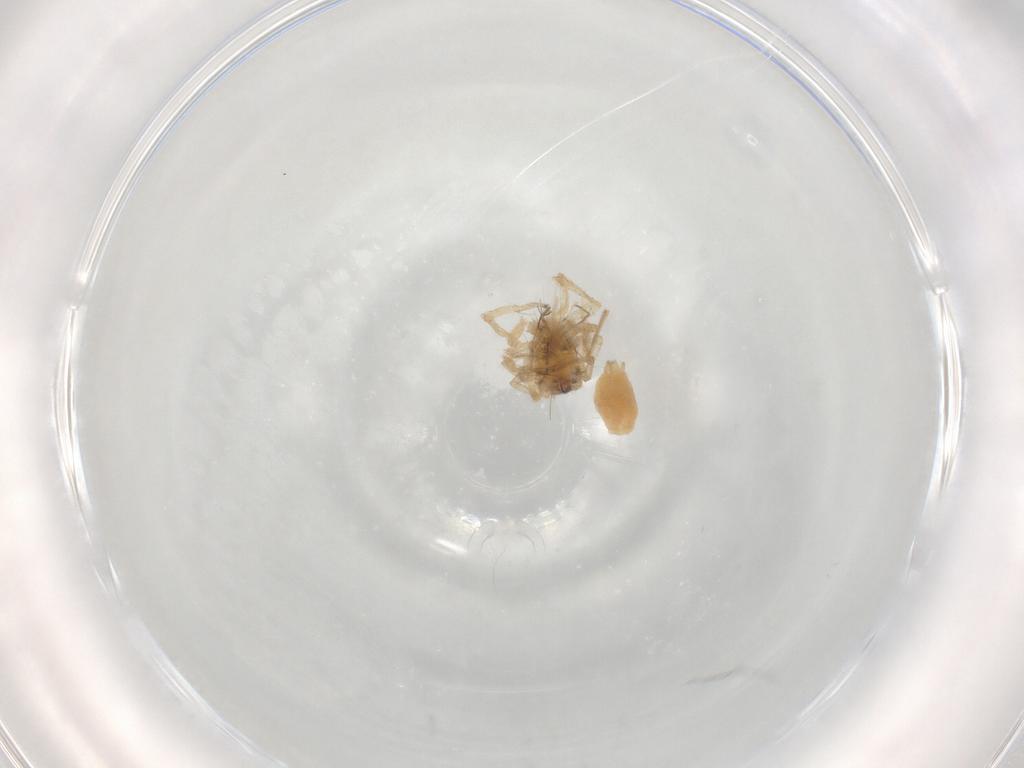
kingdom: Animalia
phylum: Arthropoda
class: Arachnida
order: Araneae
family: Clubionidae
